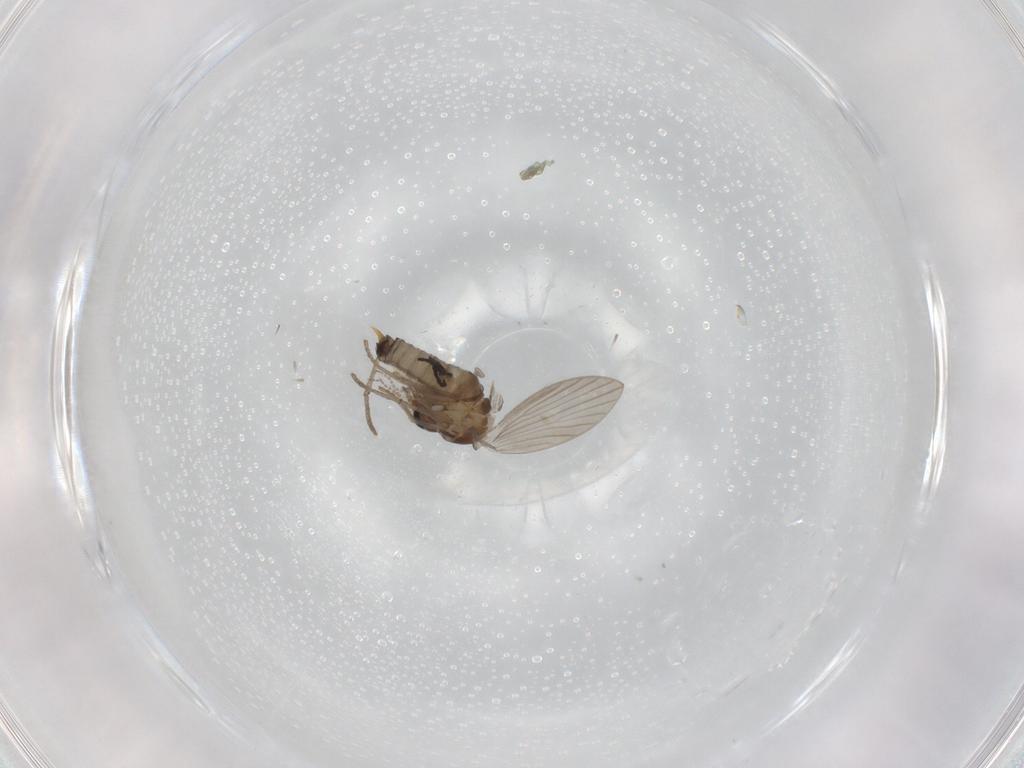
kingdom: Animalia
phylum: Arthropoda
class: Insecta
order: Diptera
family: Psychodidae
